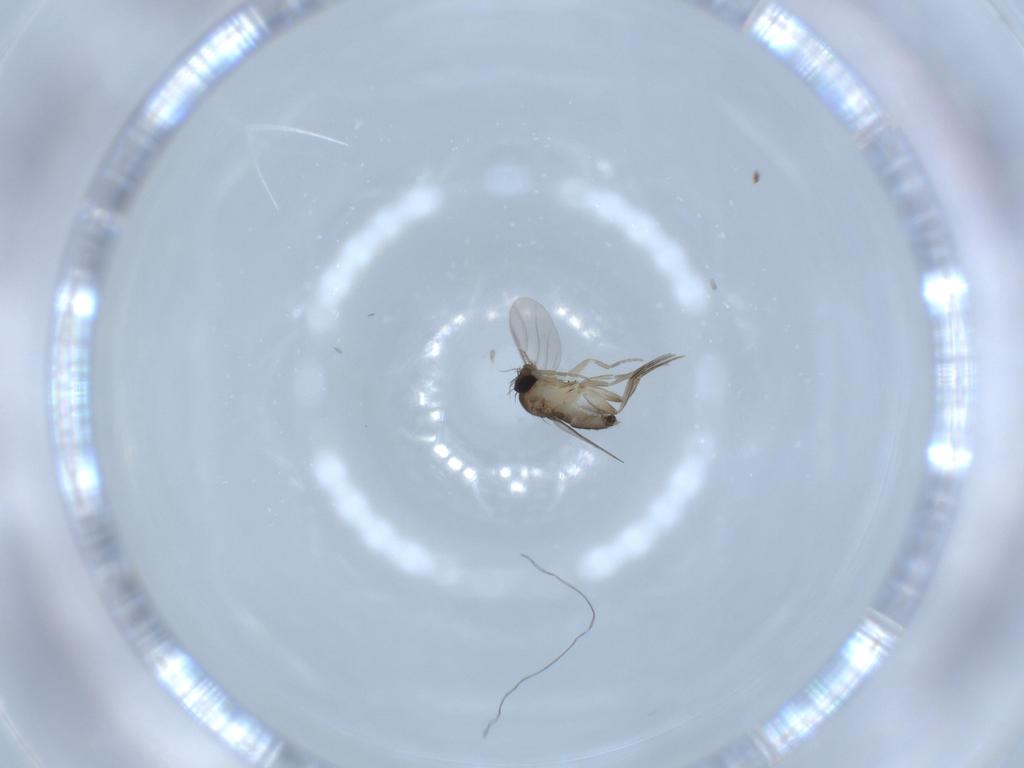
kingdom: Animalia
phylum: Arthropoda
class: Insecta
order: Diptera
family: Phoridae
